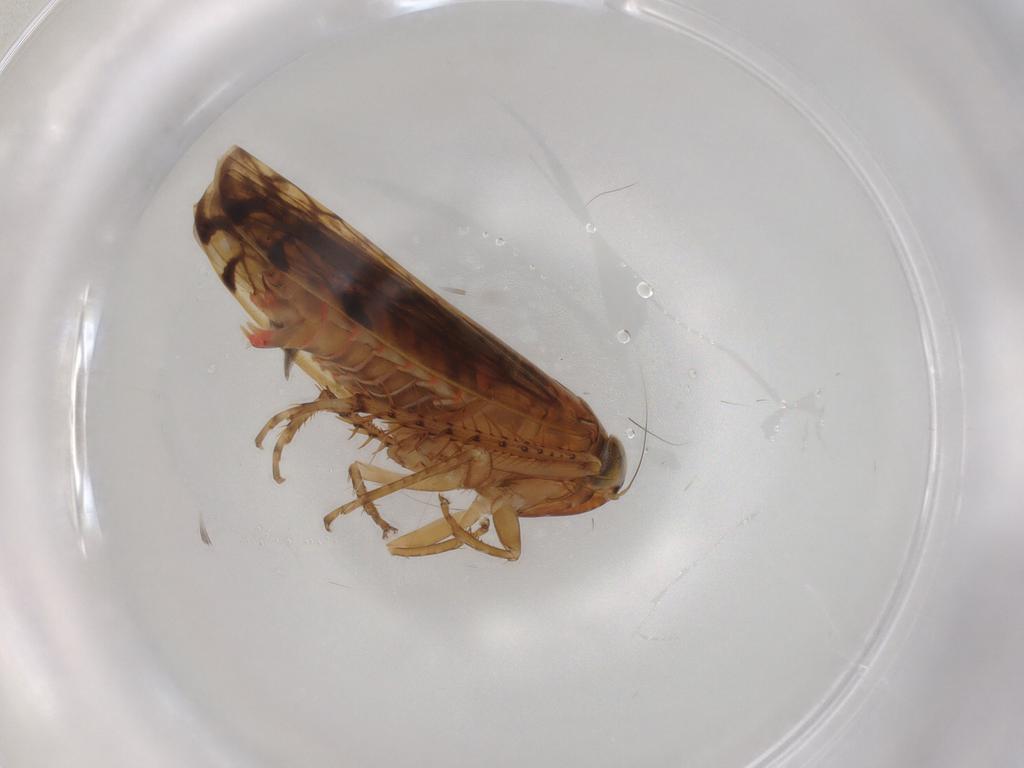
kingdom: Animalia
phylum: Arthropoda
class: Insecta
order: Hemiptera
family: Cicadellidae
